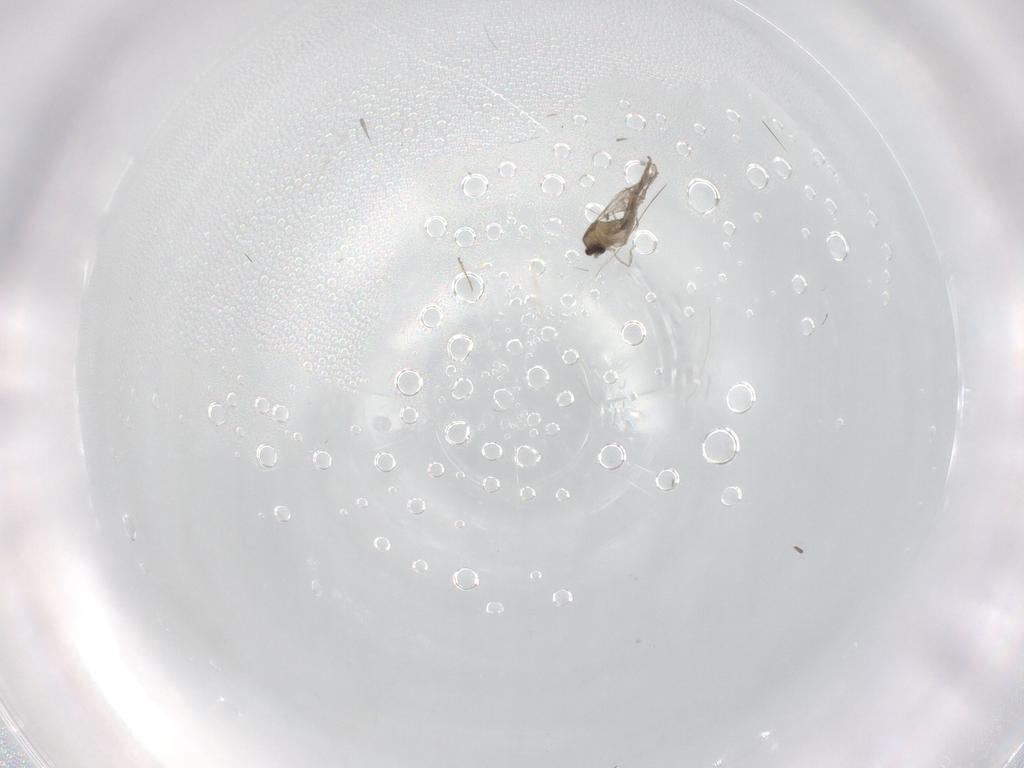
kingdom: Animalia
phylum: Arthropoda
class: Insecta
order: Diptera
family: Cecidomyiidae
